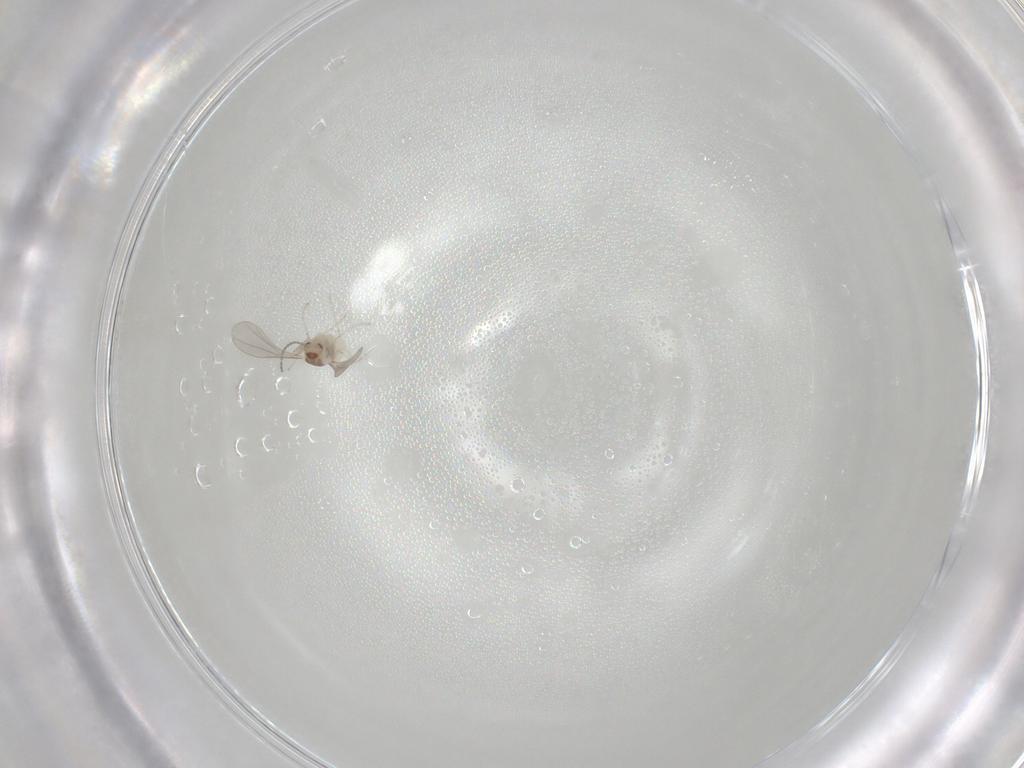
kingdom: Animalia
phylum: Arthropoda
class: Insecta
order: Diptera
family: Cecidomyiidae
